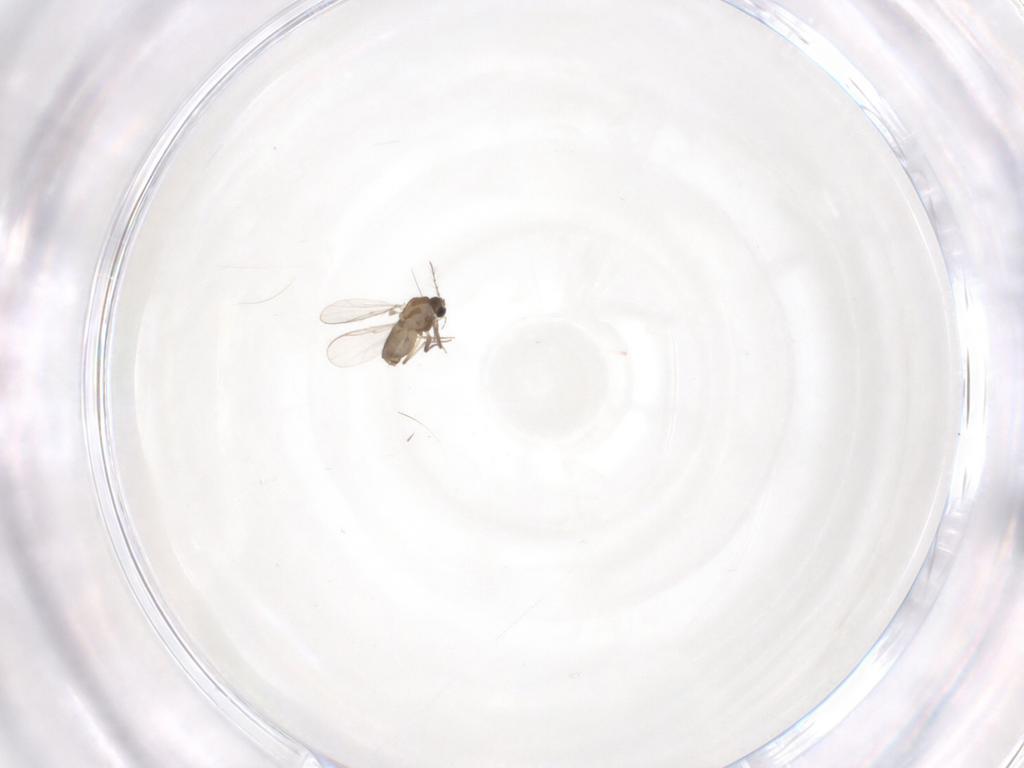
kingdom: Animalia
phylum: Arthropoda
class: Insecta
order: Diptera
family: Chironomidae
